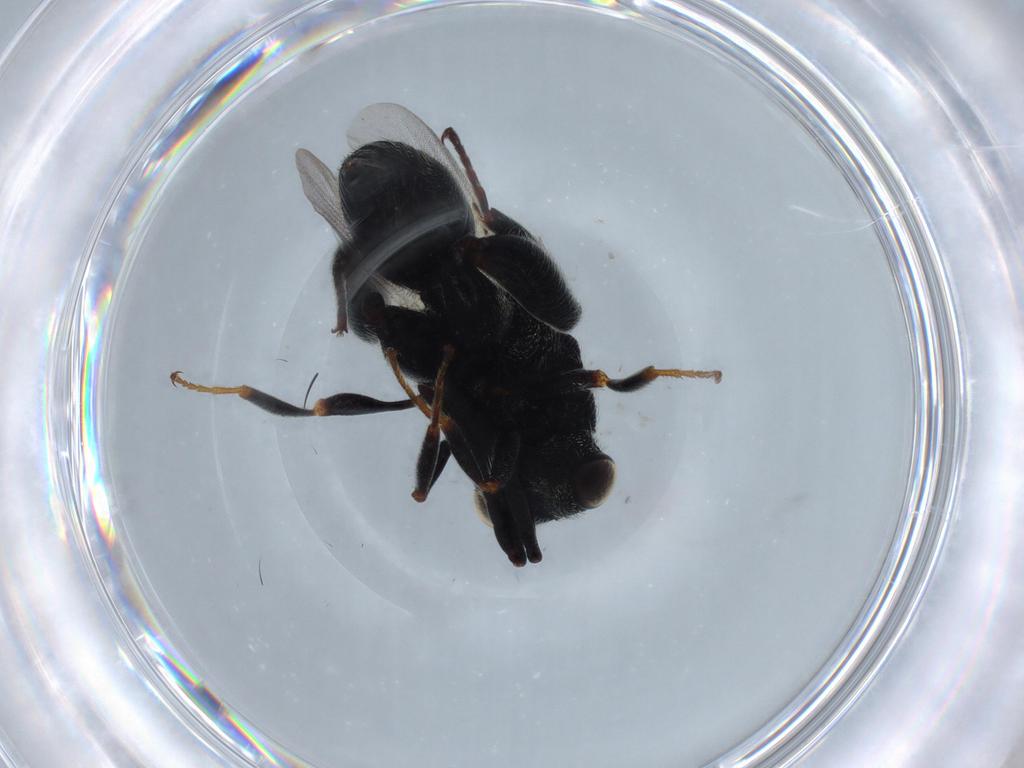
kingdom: Animalia
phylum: Arthropoda
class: Insecta
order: Hymenoptera
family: Chalcididae
